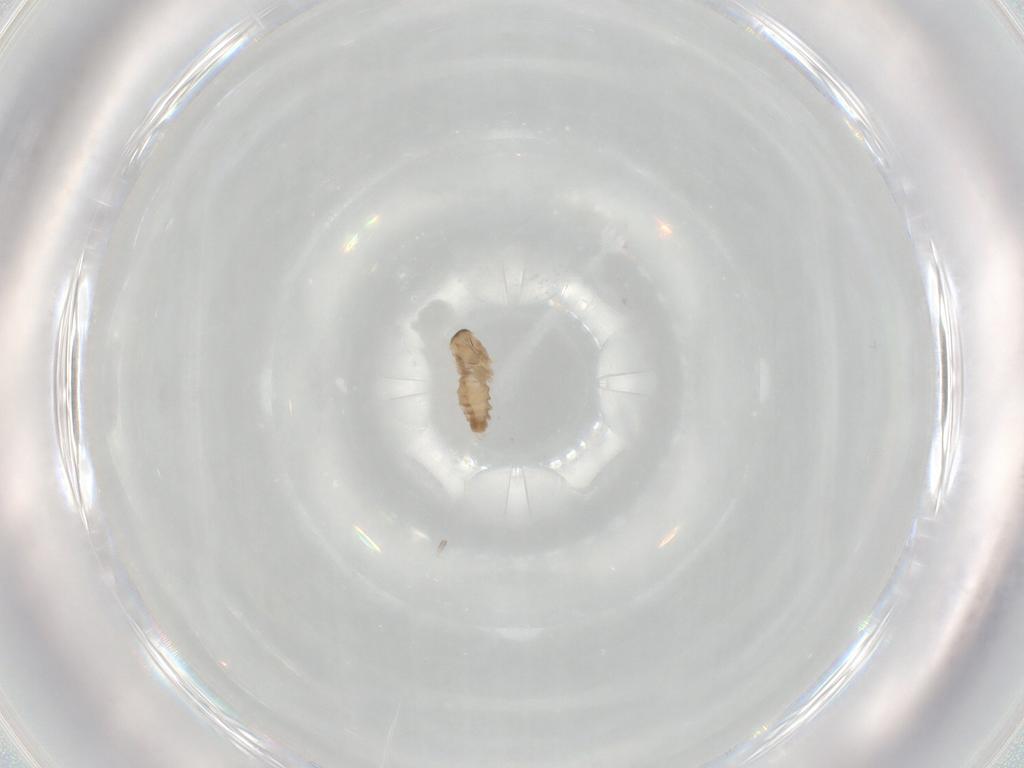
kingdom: Animalia
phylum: Arthropoda
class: Insecta
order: Diptera
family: Cecidomyiidae
